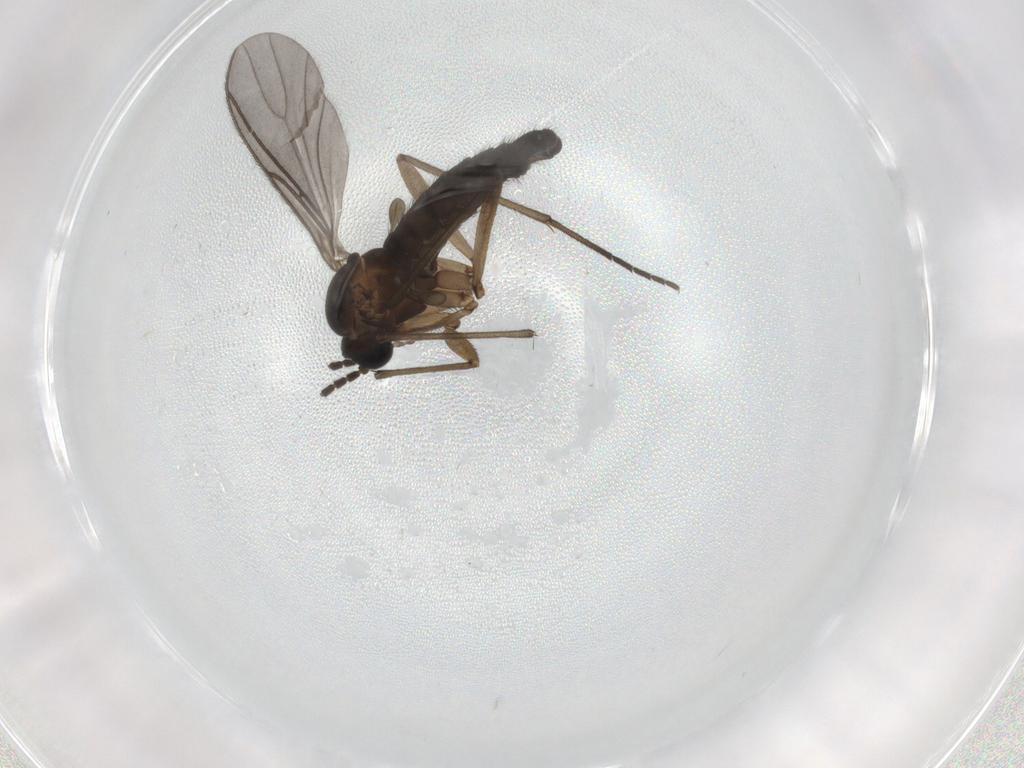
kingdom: Animalia
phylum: Arthropoda
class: Insecta
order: Diptera
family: Sciaridae
